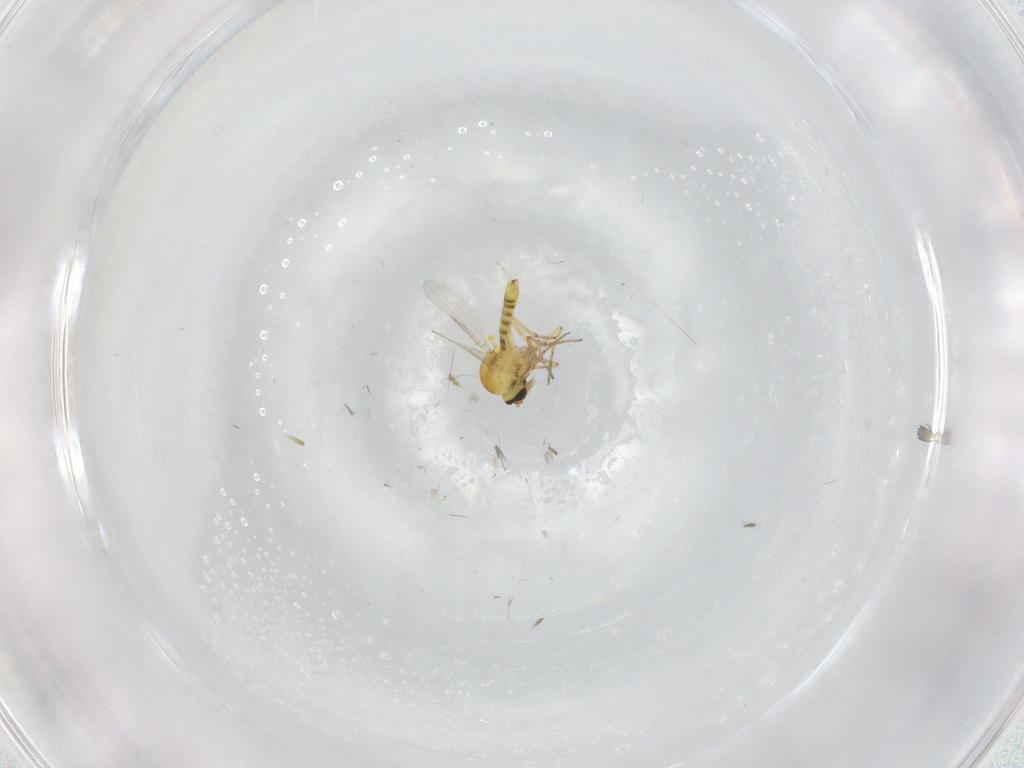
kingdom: Animalia
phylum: Arthropoda
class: Insecta
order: Diptera
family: Ceratopogonidae
